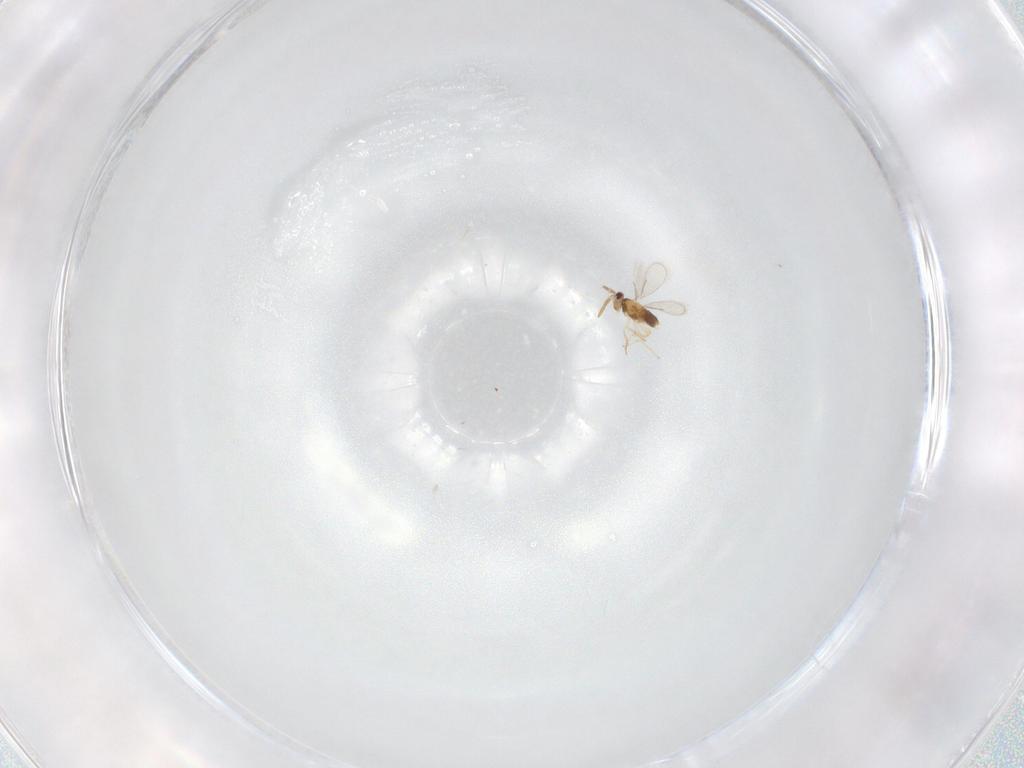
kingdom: Animalia
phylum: Arthropoda
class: Insecta
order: Hymenoptera
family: Aphelinidae
